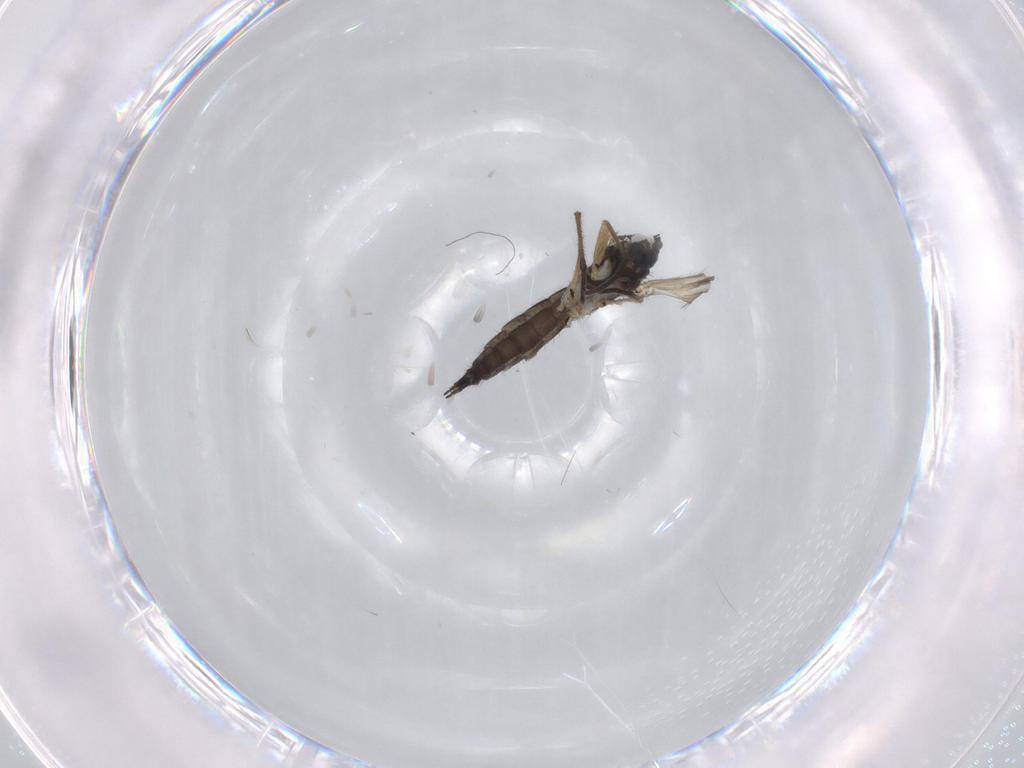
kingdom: Animalia
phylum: Arthropoda
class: Insecta
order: Diptera
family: Sciaridae
